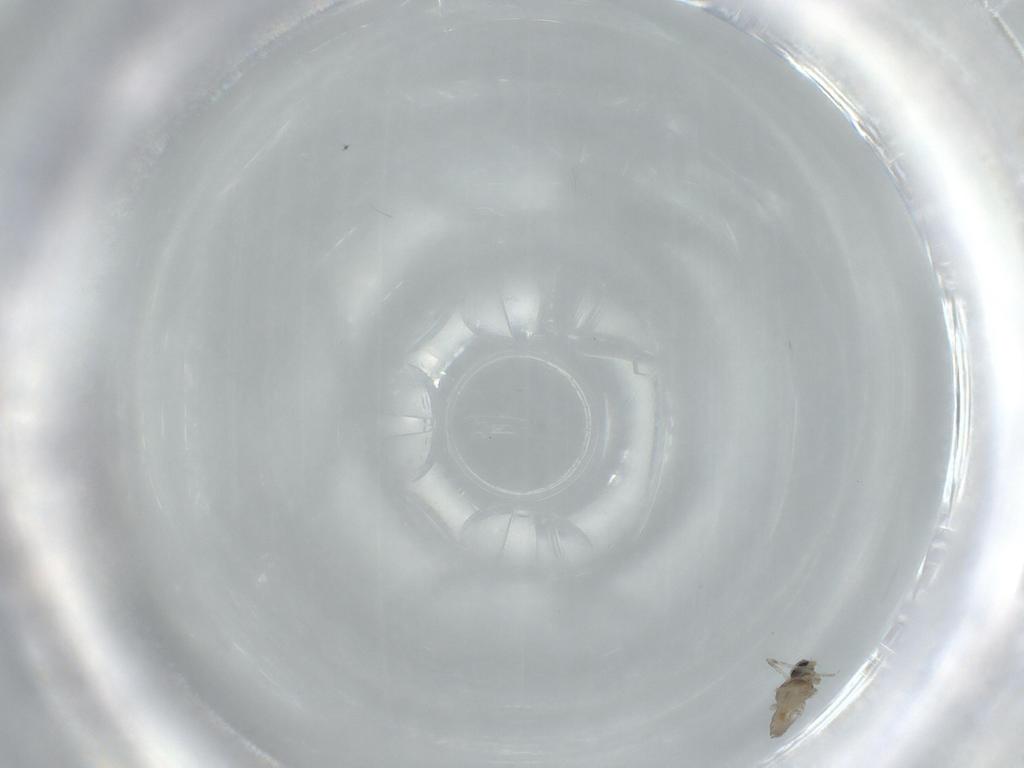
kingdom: Animalia
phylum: Arthropoda
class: Insecta
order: Diptera
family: Cecidomyiidae
